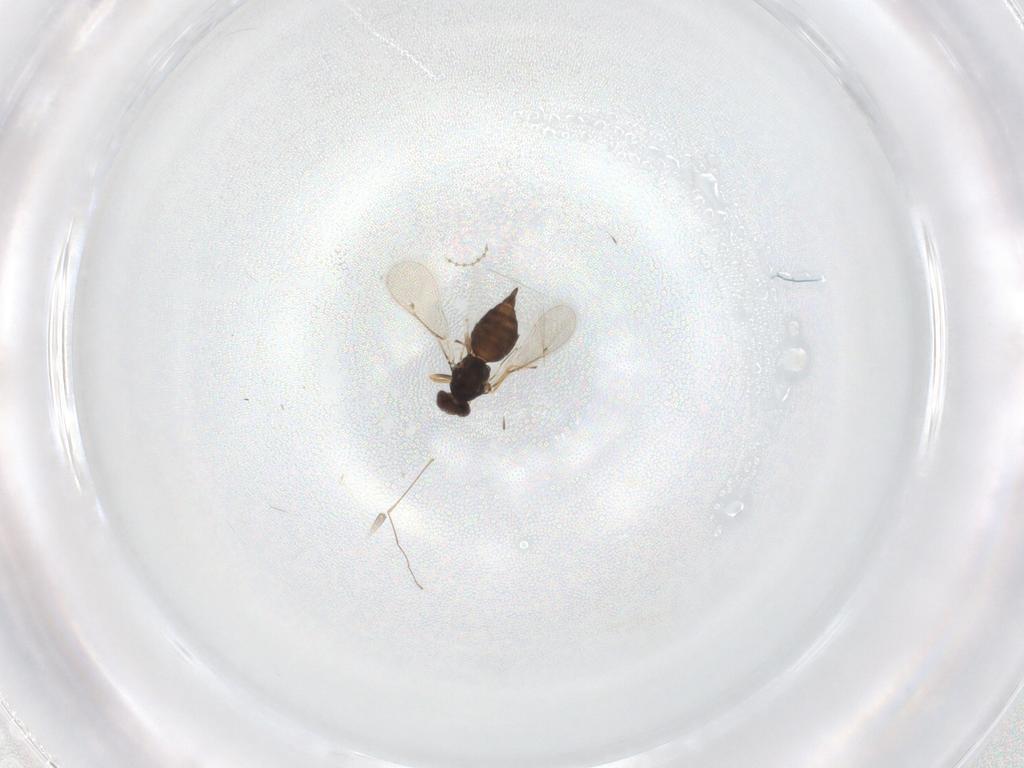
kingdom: Animalia
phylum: Arthropoda
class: Insecta
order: Hymenoptera
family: Eulophidae
